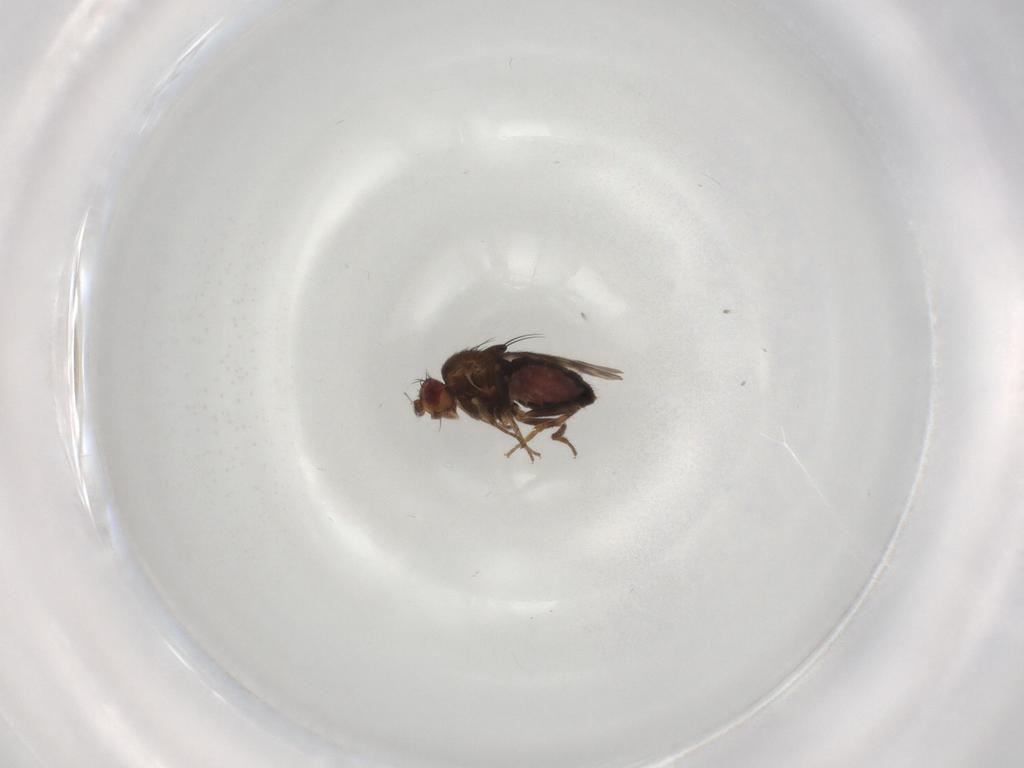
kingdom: Animalia
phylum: Arthropoda
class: Insecta
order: Diptera
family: Sphaeroceridae
